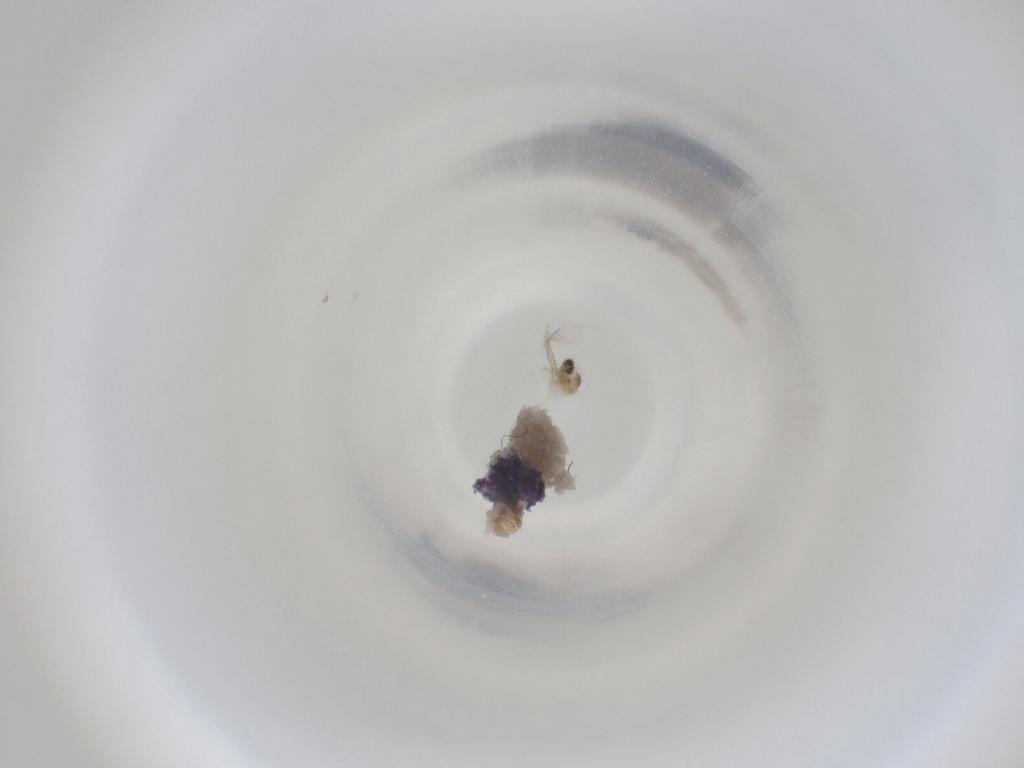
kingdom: Animalia
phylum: Arthropoda
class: Insecta
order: Diptera
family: Cecidomyiidae
